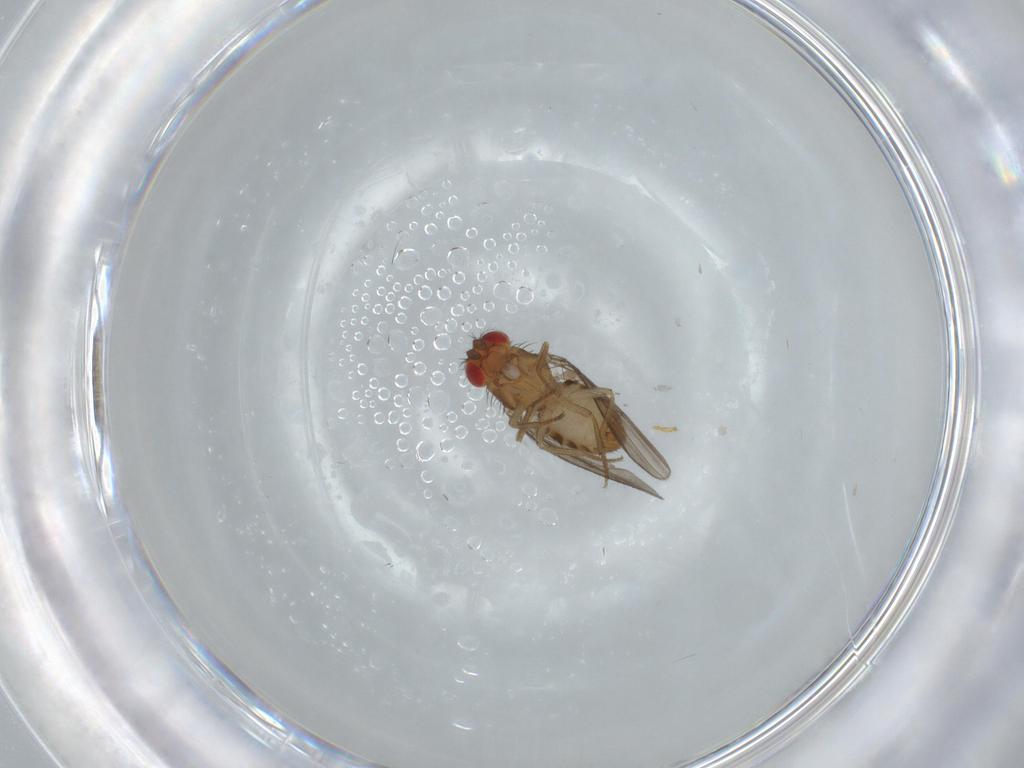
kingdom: Animalia
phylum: Arthropoda
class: Insecta
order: Diptera
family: Drosophilidae
